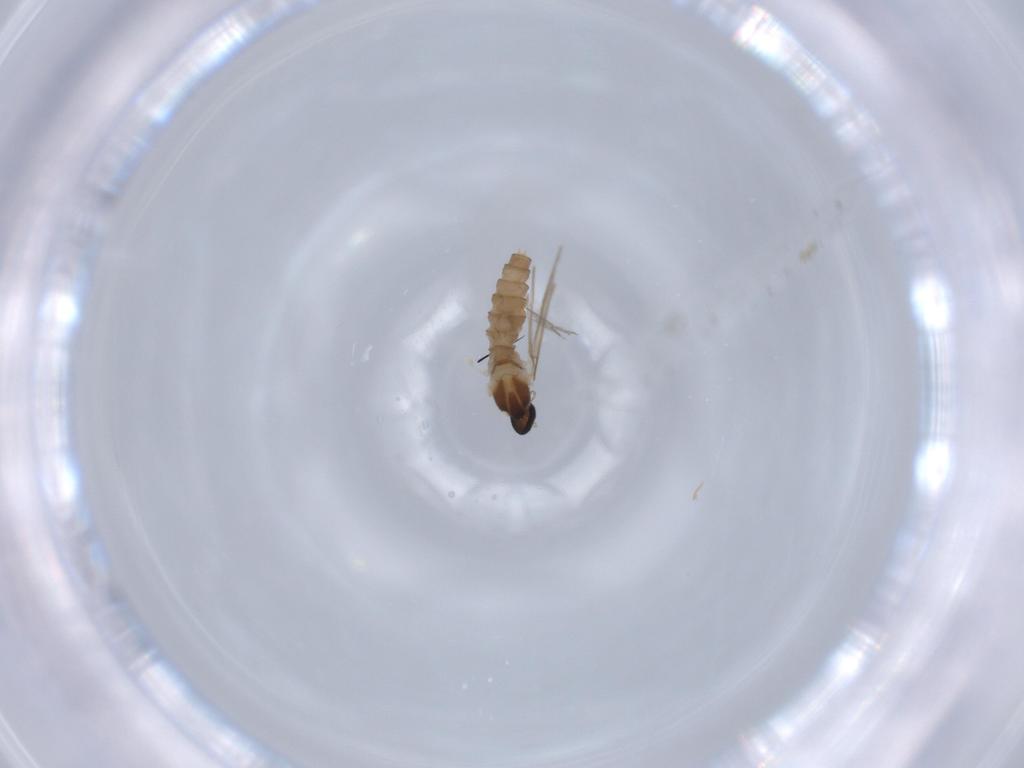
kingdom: Animalia
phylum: Arthropoda
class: Insecta
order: Diptera
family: Cecidomyiidae
